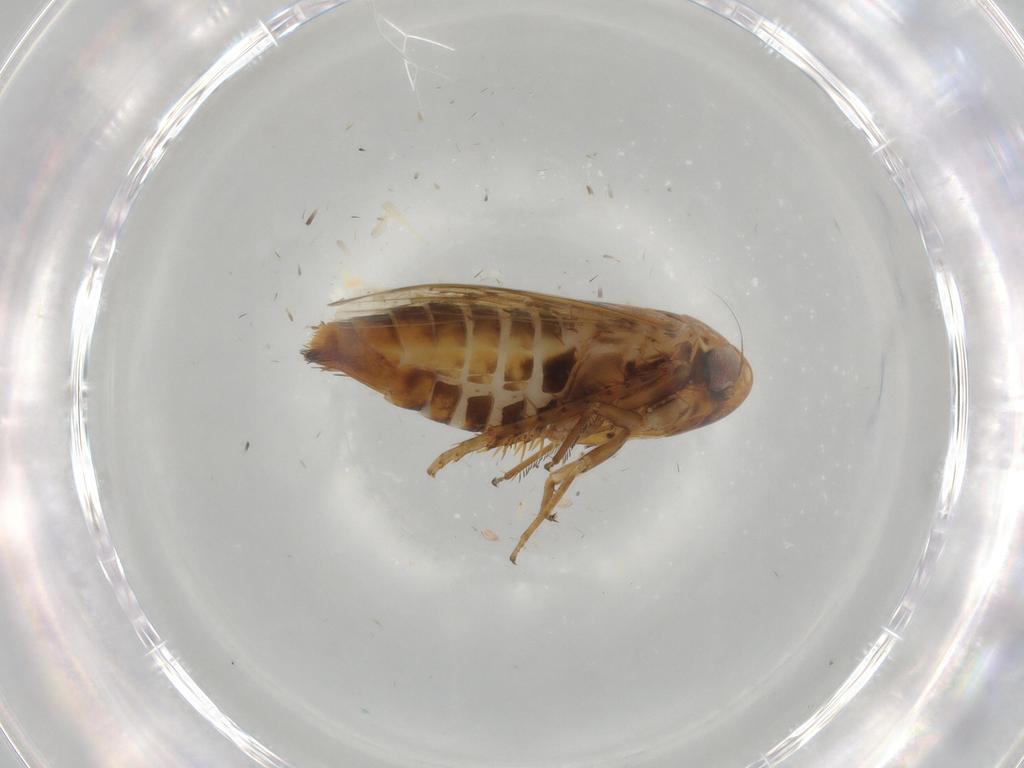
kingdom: Animalia
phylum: Arthropoda
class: Insecta
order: Hemiptera
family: Cicadellidae
